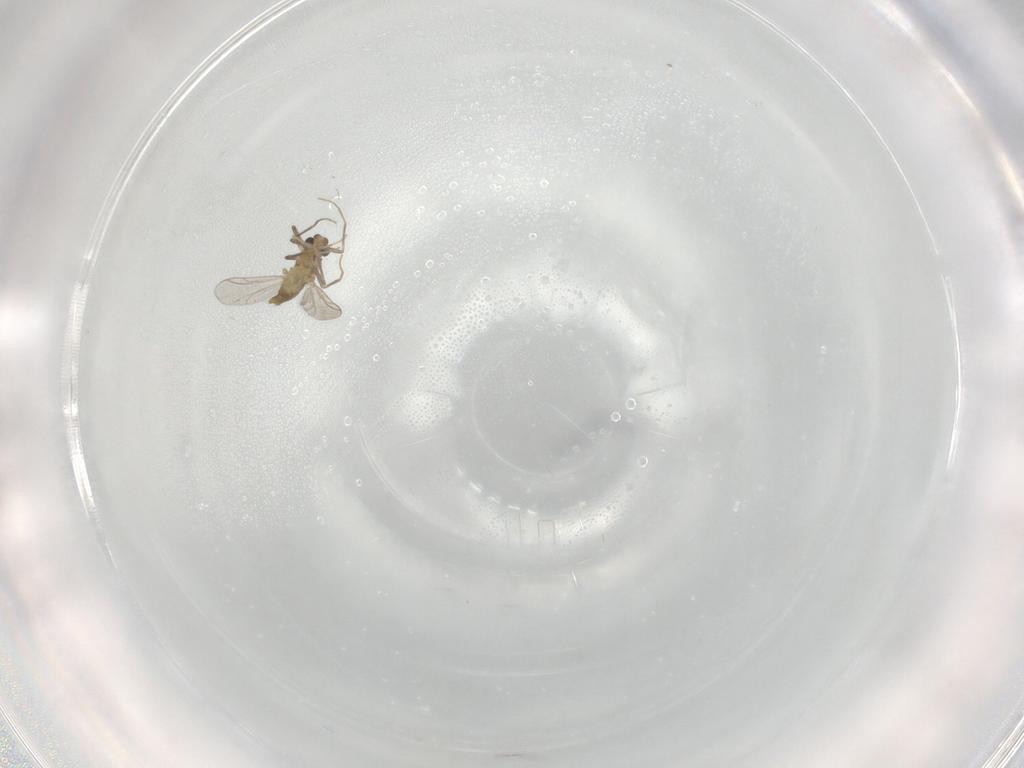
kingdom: Animalia
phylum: Arthropoda
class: Insecta
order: Diptera
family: Chironomidae
